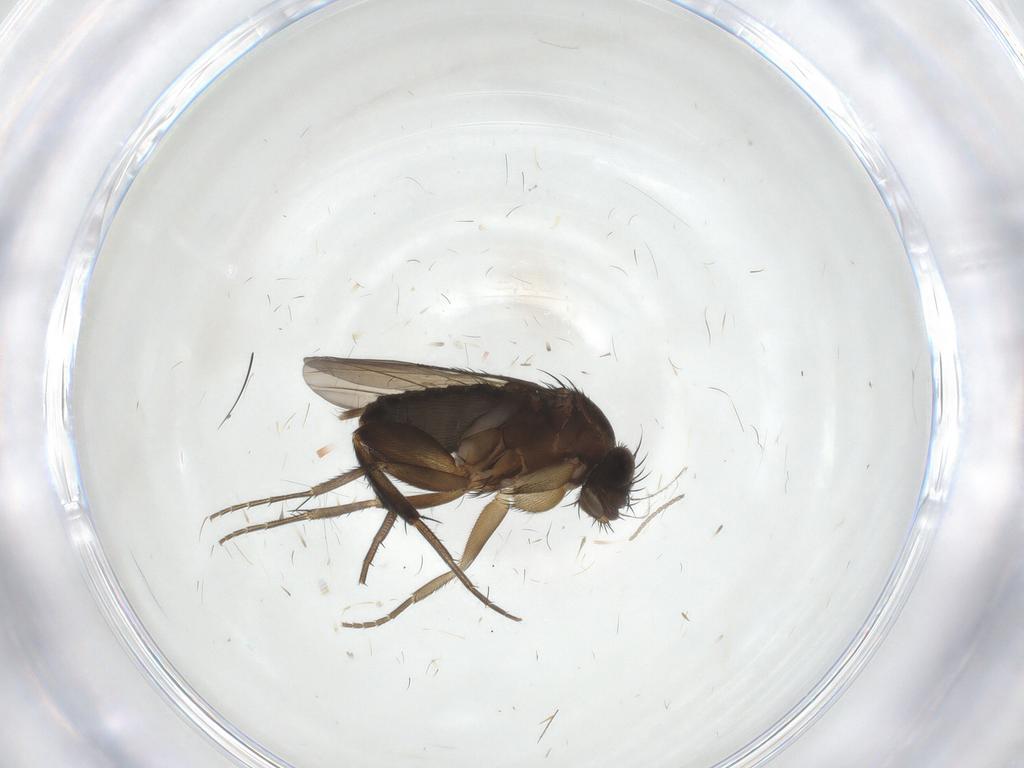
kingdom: Animalia
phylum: Arthropoda
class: Insecta
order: Diptera
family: Phoridae
